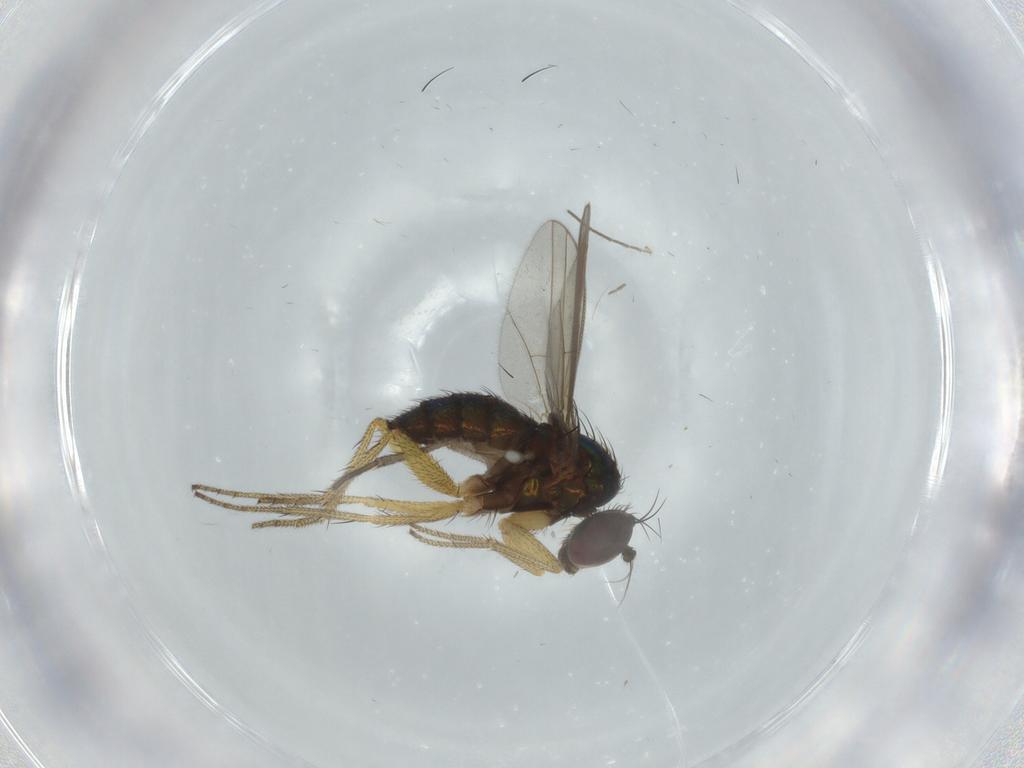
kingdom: Animalia
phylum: Arthropoda
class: Insecta
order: Diptera
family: Sciaridae
